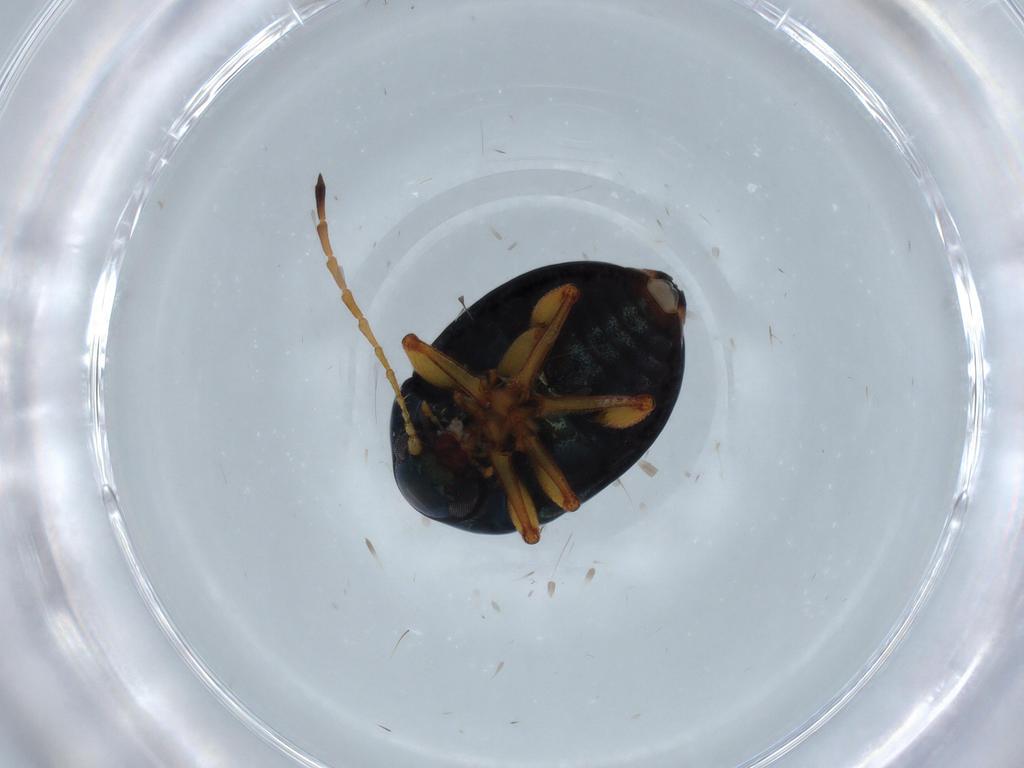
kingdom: Animalia
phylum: Arthropoda
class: Insecta
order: Coleoptera
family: Chrysomelidae
